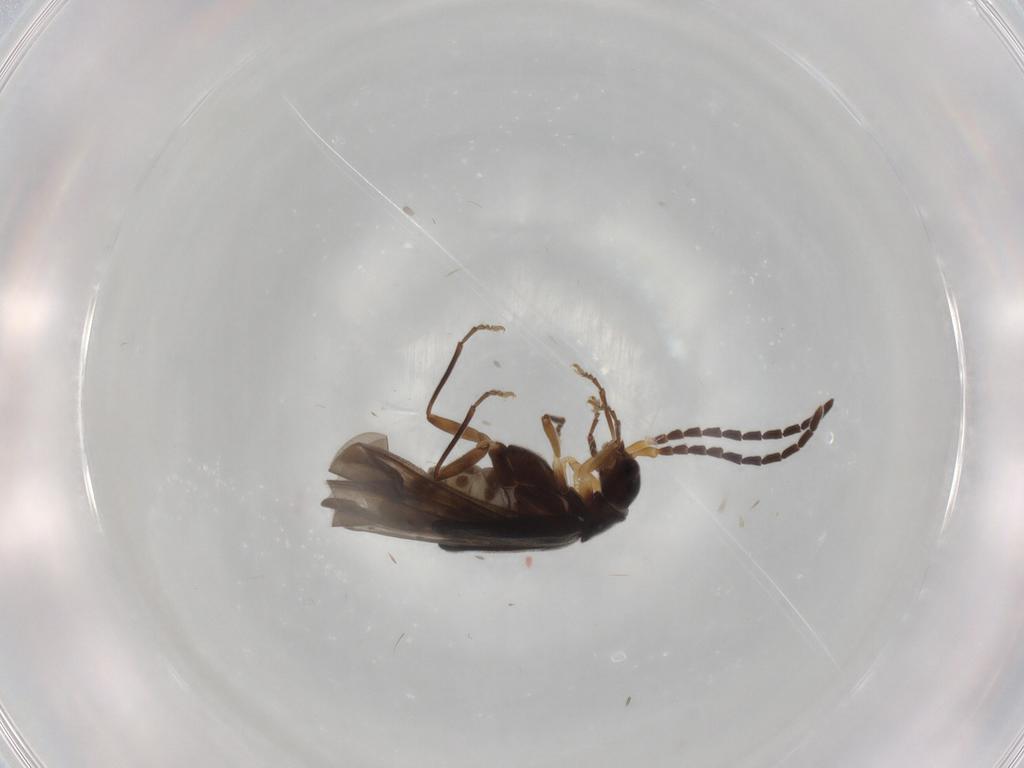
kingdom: Animalia
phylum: Arthropoda
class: Insecta
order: Coleoptera
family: Cantharidae
